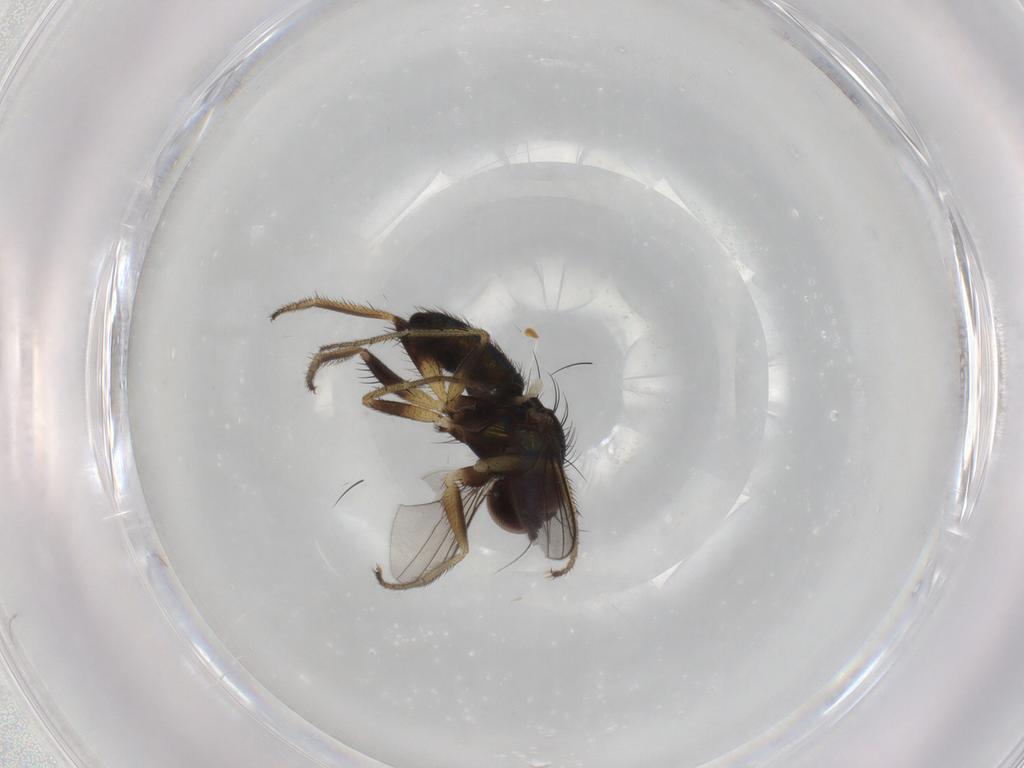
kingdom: Animalia
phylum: Arthropoda
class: Insecta
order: Diptera
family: Dolichopodidae
